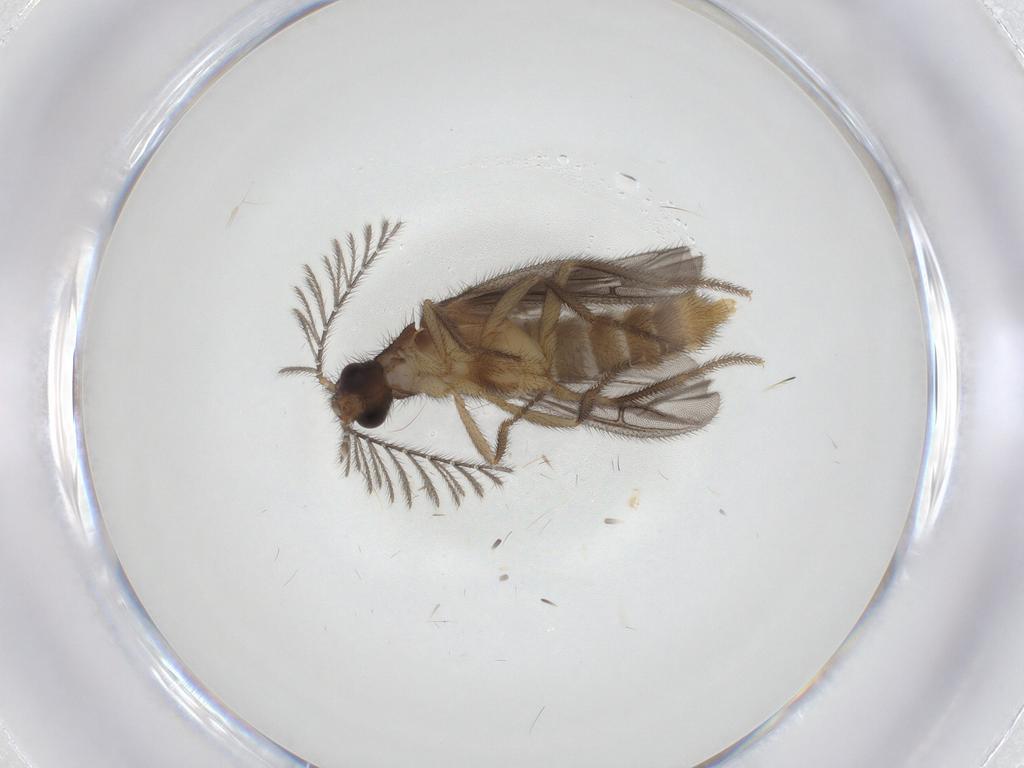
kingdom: Animalia
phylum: Arthropoda
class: Insecta
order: Coleoptera
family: Phengodidae
